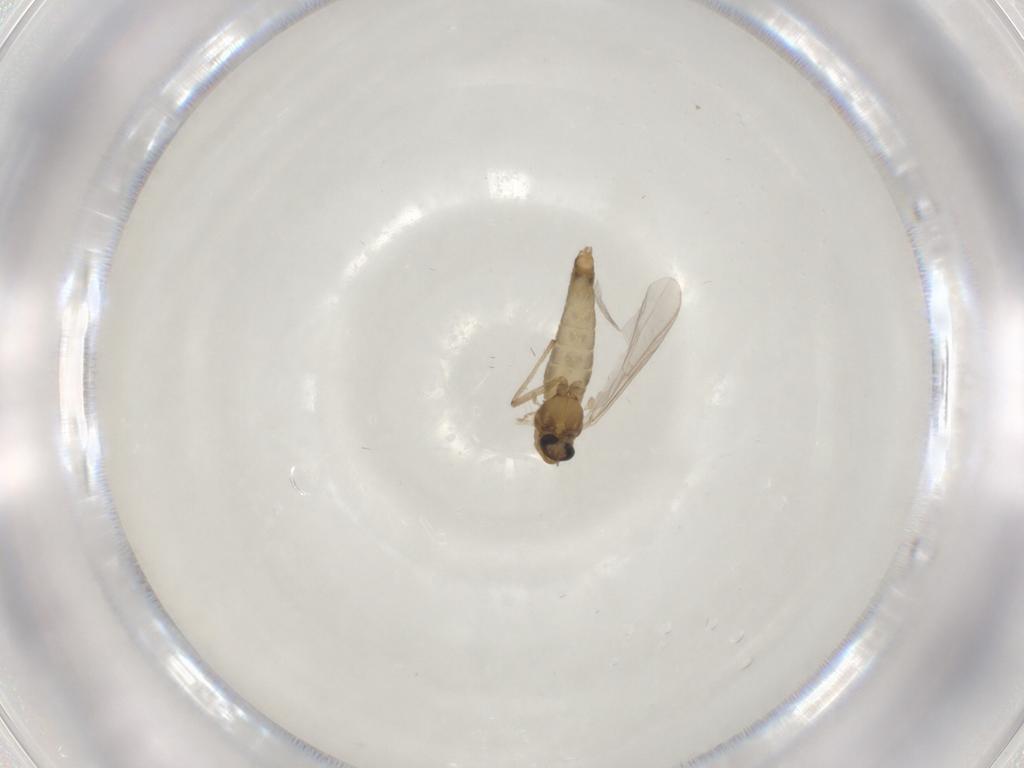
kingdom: Animalia
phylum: Arthropoda
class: Insecta
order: Diptera
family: Chironomidae
